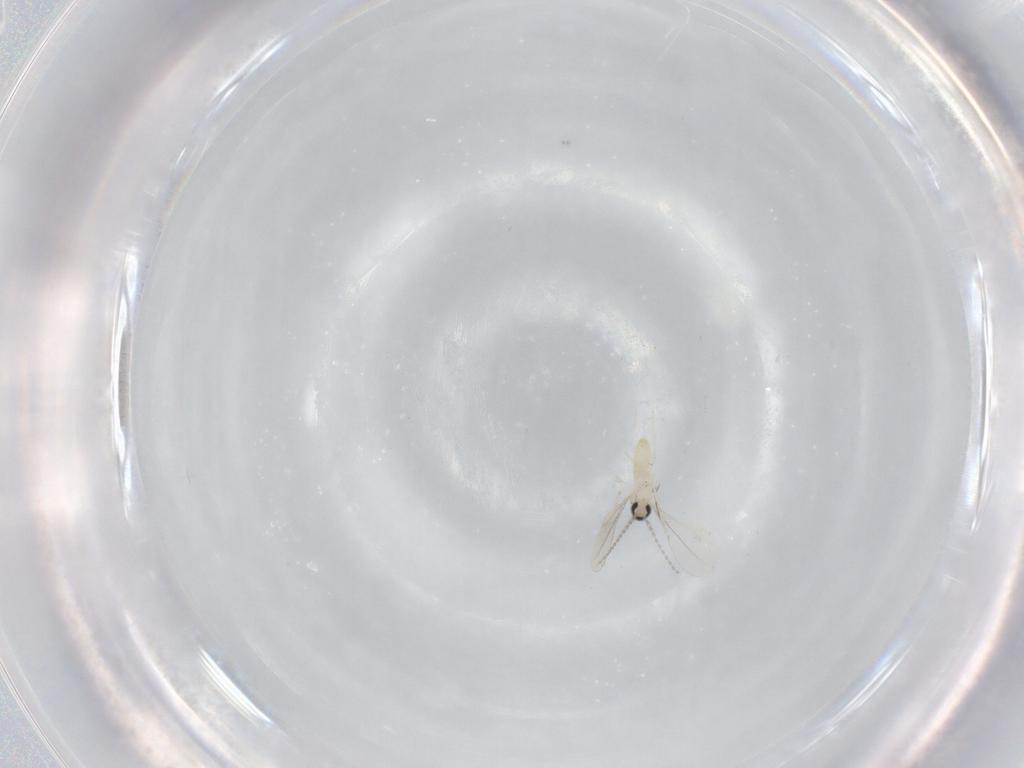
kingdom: Animalia
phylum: Arthropoda
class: Insecta
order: Diptera
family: Cecidomyiidae
